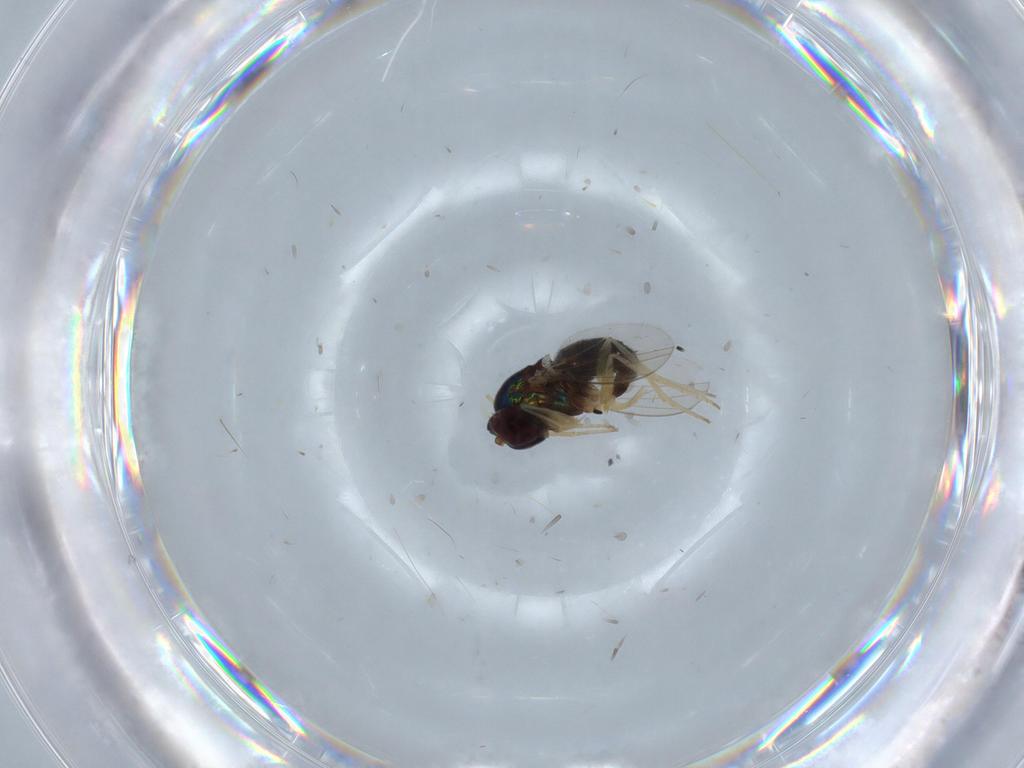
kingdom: Animalia
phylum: Arthropoda
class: Insecta
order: Diptera
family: Dolichopodidae
